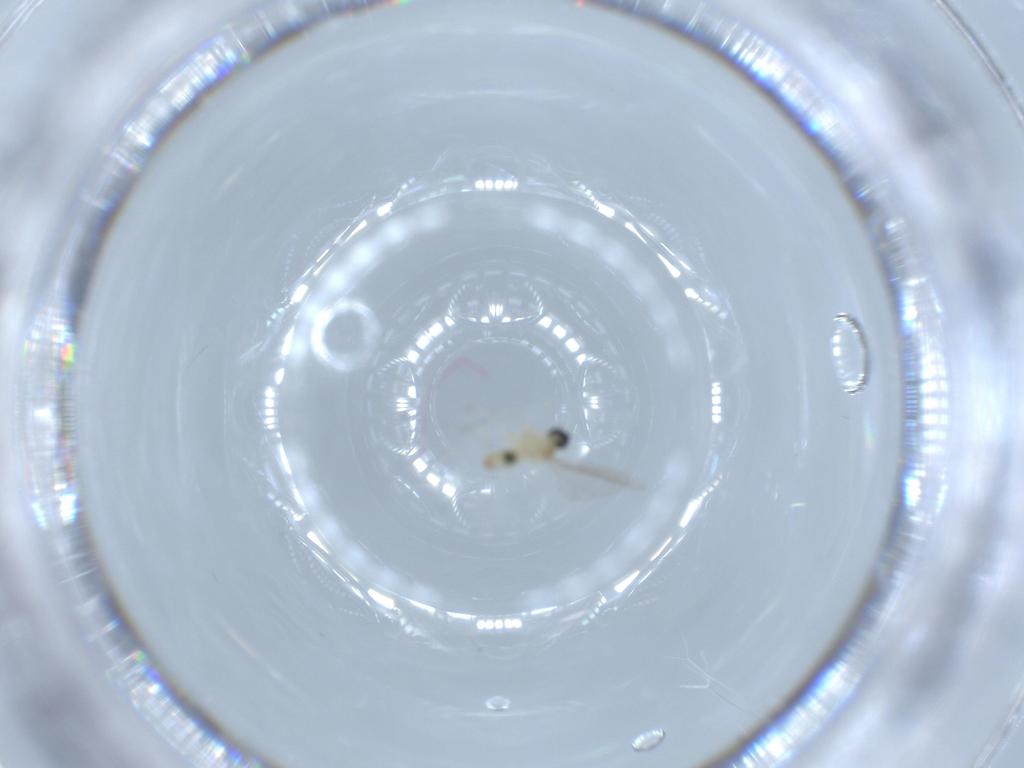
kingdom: Animalia
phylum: Arthropoda
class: Insecta
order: Diptera
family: Cecidomyiidae
